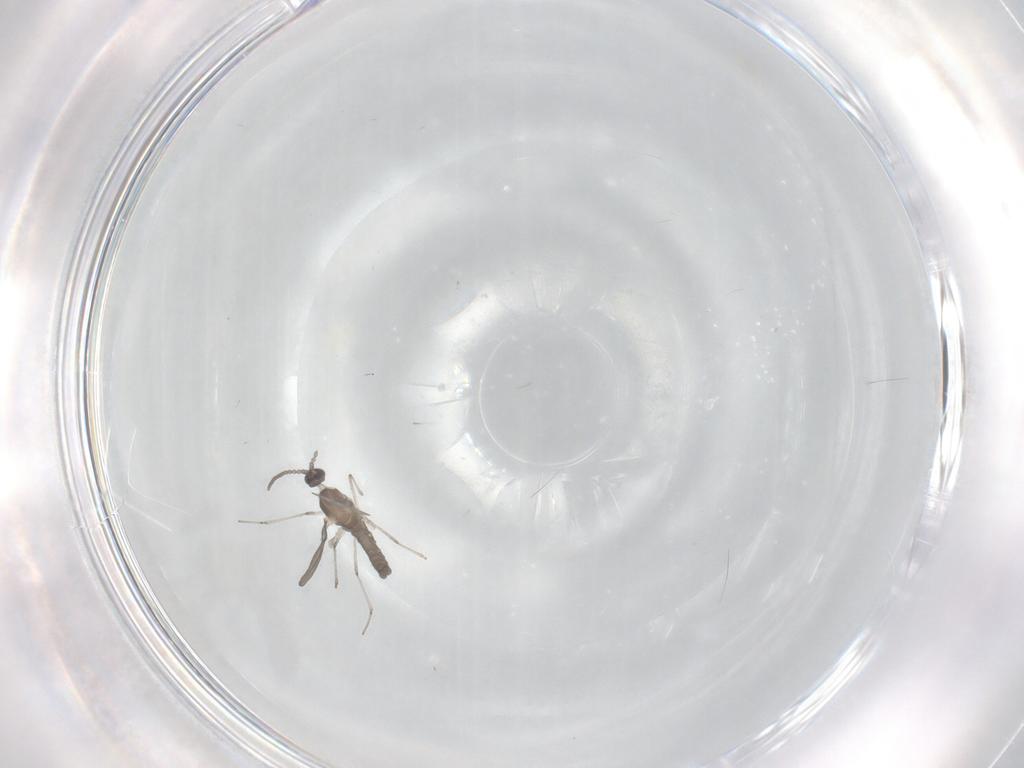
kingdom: Animalia
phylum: Arthropoda
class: Insecta
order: Diptera
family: Cecidomyiidae
